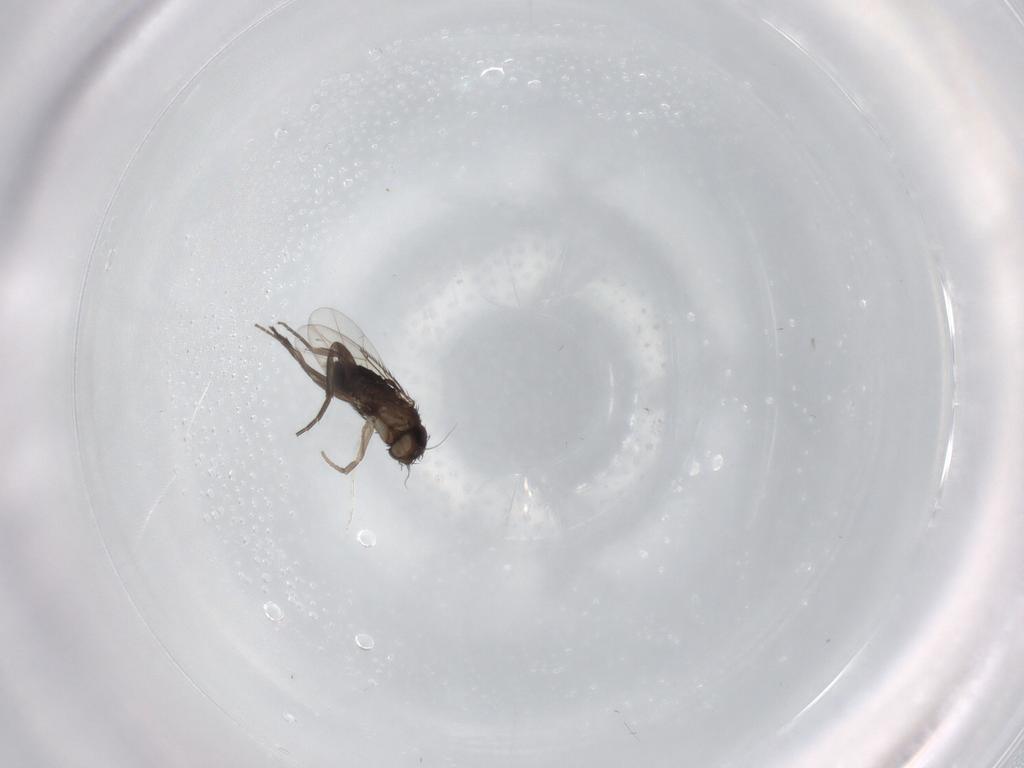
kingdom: Animalia
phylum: Arthropoda
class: Insecta
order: Diptera
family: Phoridae
